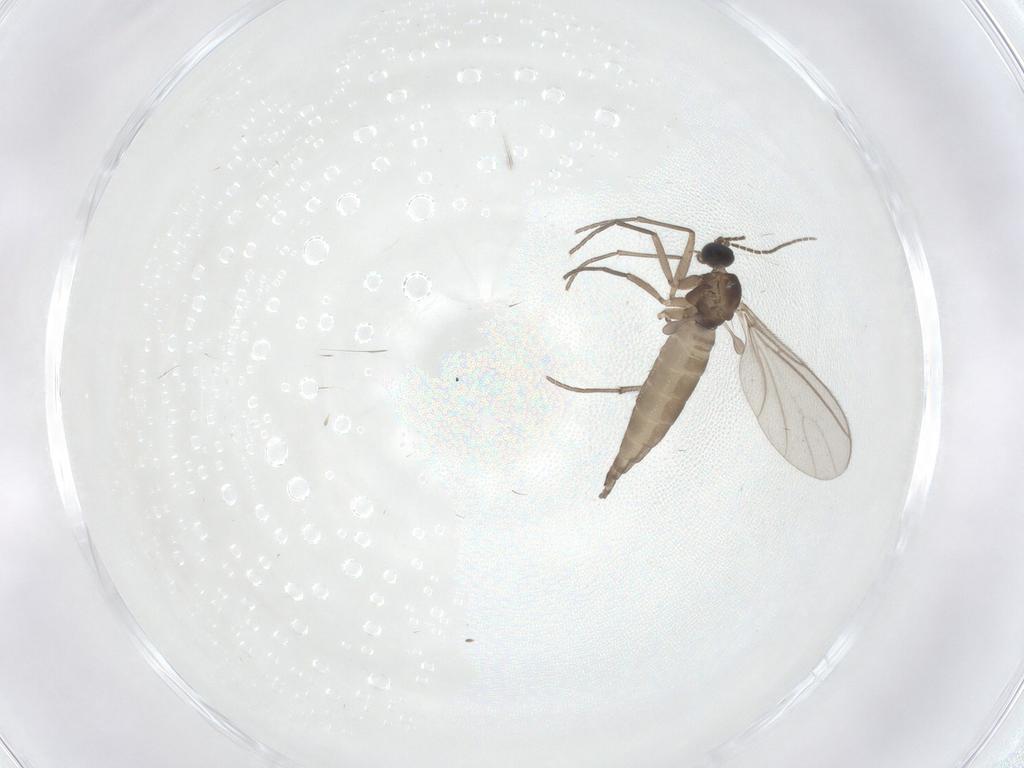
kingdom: Animalia
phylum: Arthropoda
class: Insecta
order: Diptera
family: Sciaridae
